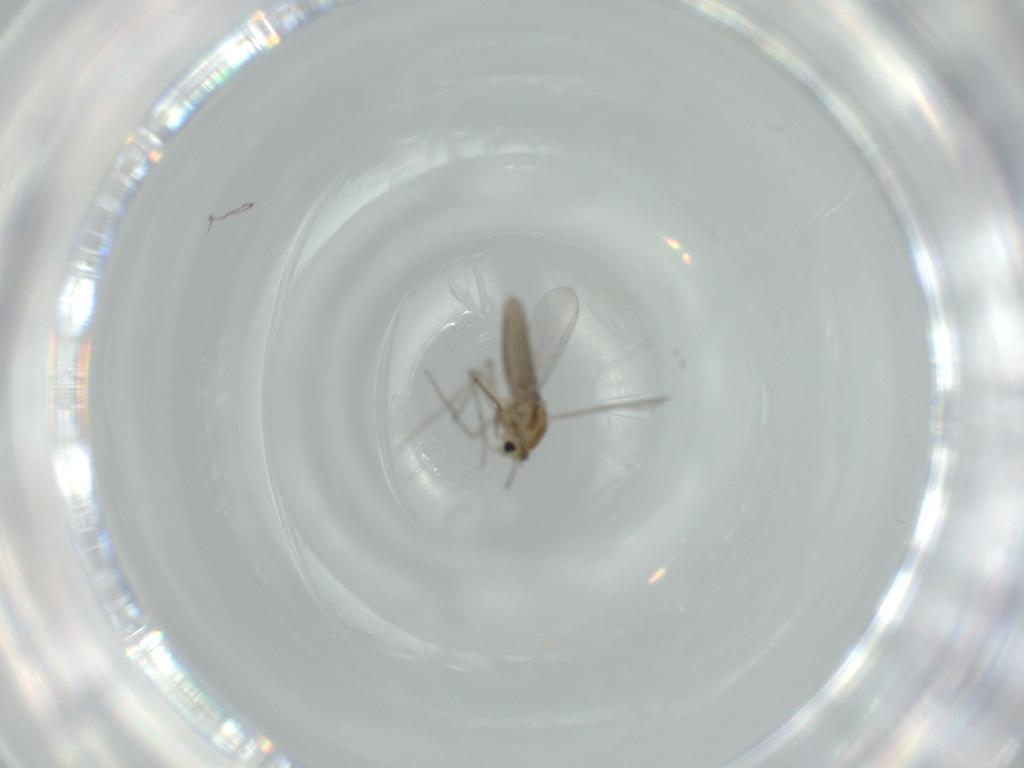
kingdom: Animalia
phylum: Arthropoda
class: Insecta
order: Diptera
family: Chironomidae
